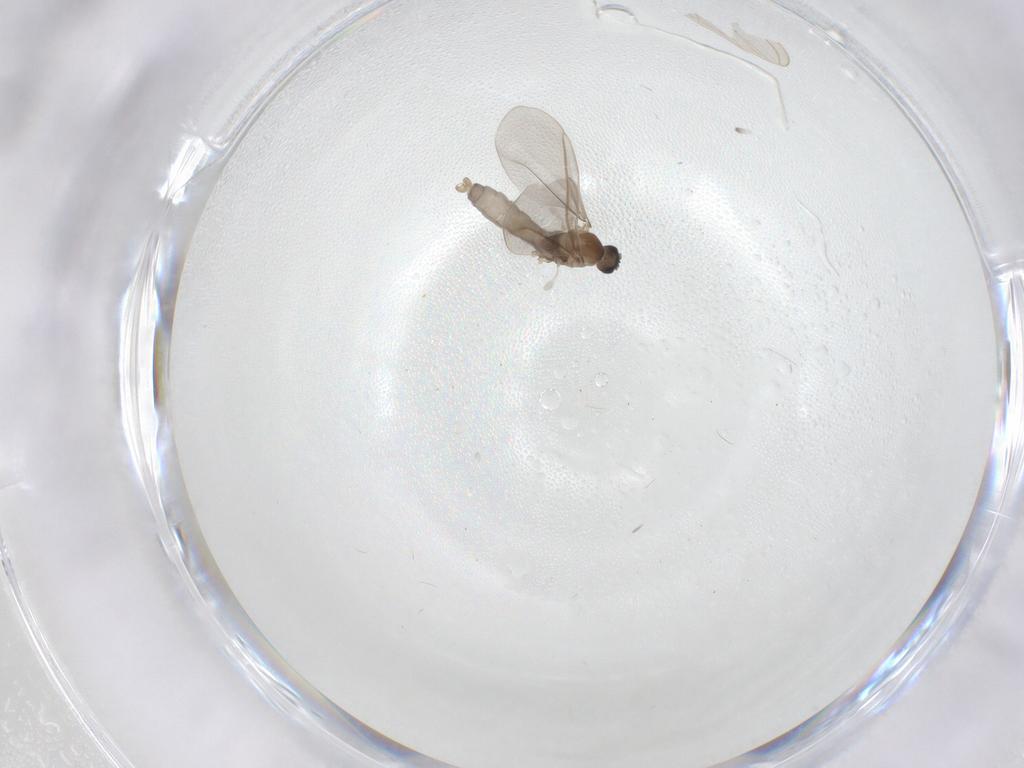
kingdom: Animalia
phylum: Arthropoda
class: Insecta
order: Diptera
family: Cecidomyiidae
